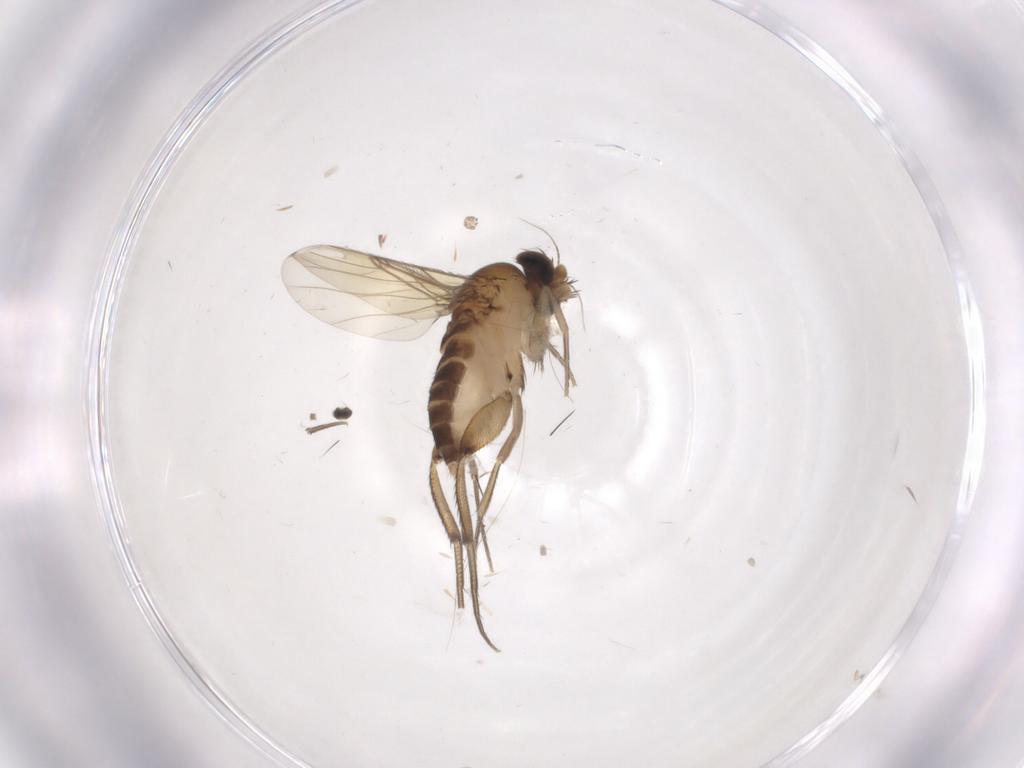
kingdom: Animalia
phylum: Arthropoda
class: Insecta
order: Diptera
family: Phoridae
